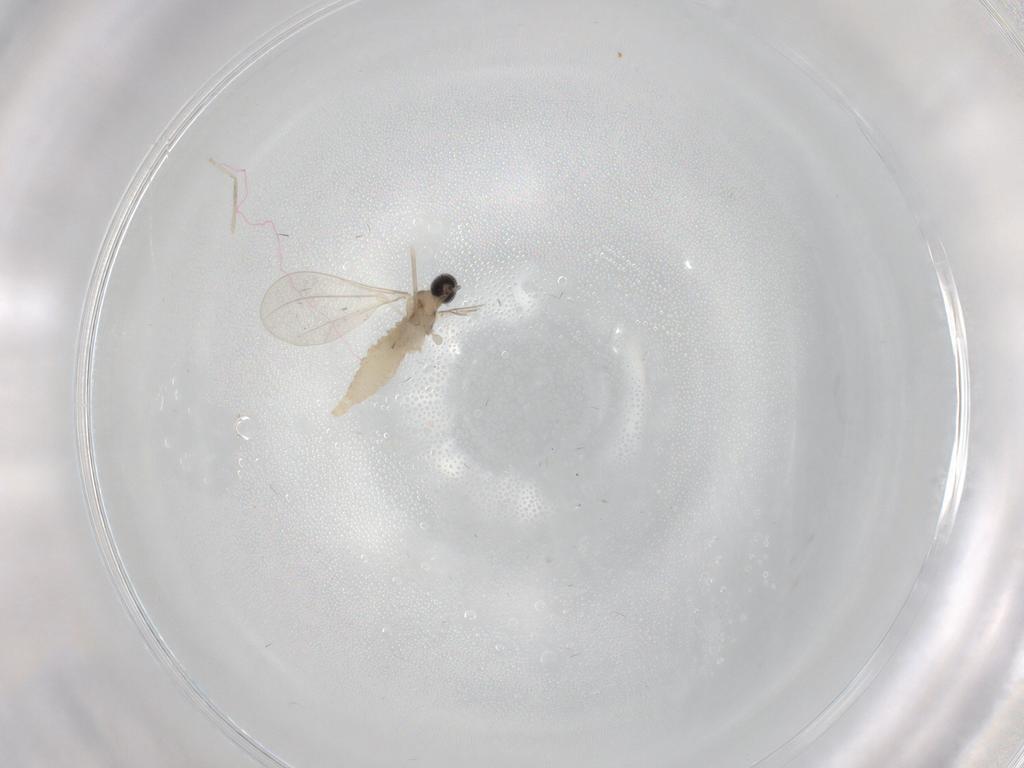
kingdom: Animalia
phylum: Arthropoda
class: Insecta
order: Diptera
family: Cecidomyiidae
